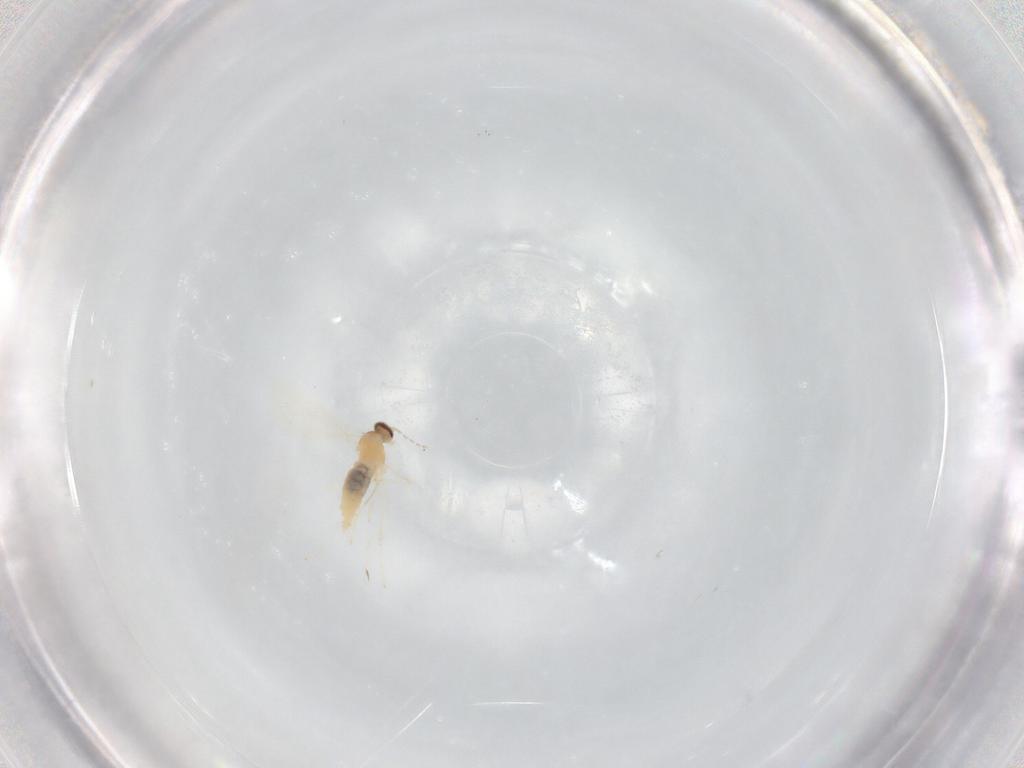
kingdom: Animalia
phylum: Arthropoda
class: Insecta
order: Diptera
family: Cecidomyiidae
